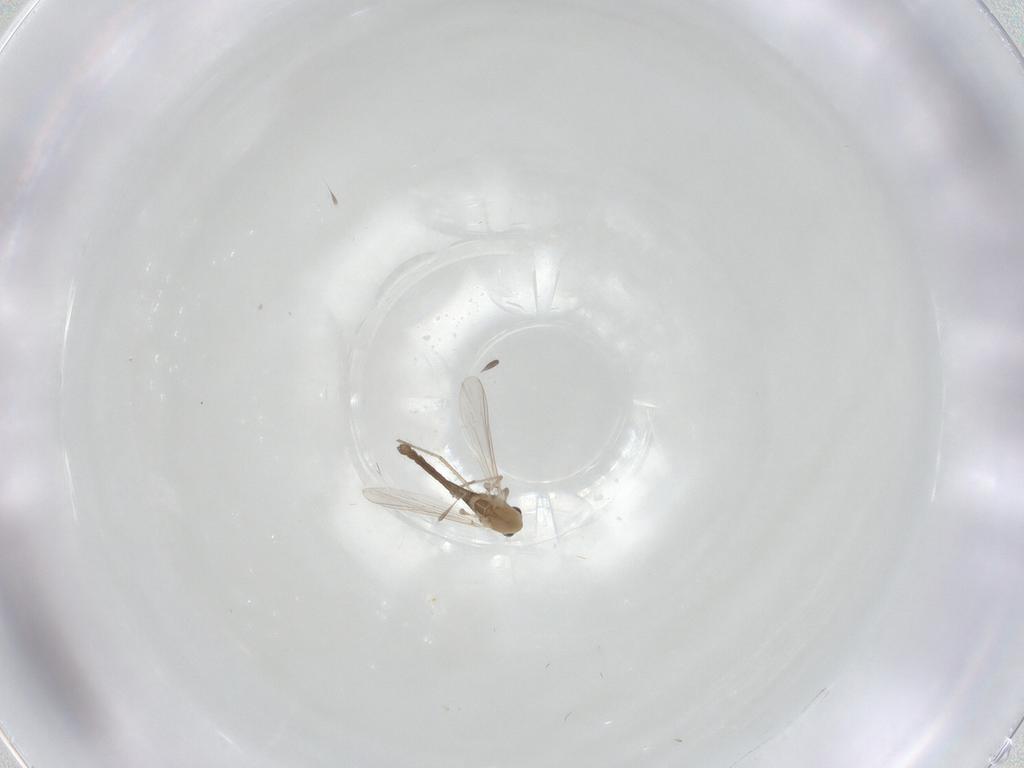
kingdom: Animalia
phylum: Arthropoda
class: Insecta
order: Diptera
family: Chironomidae
